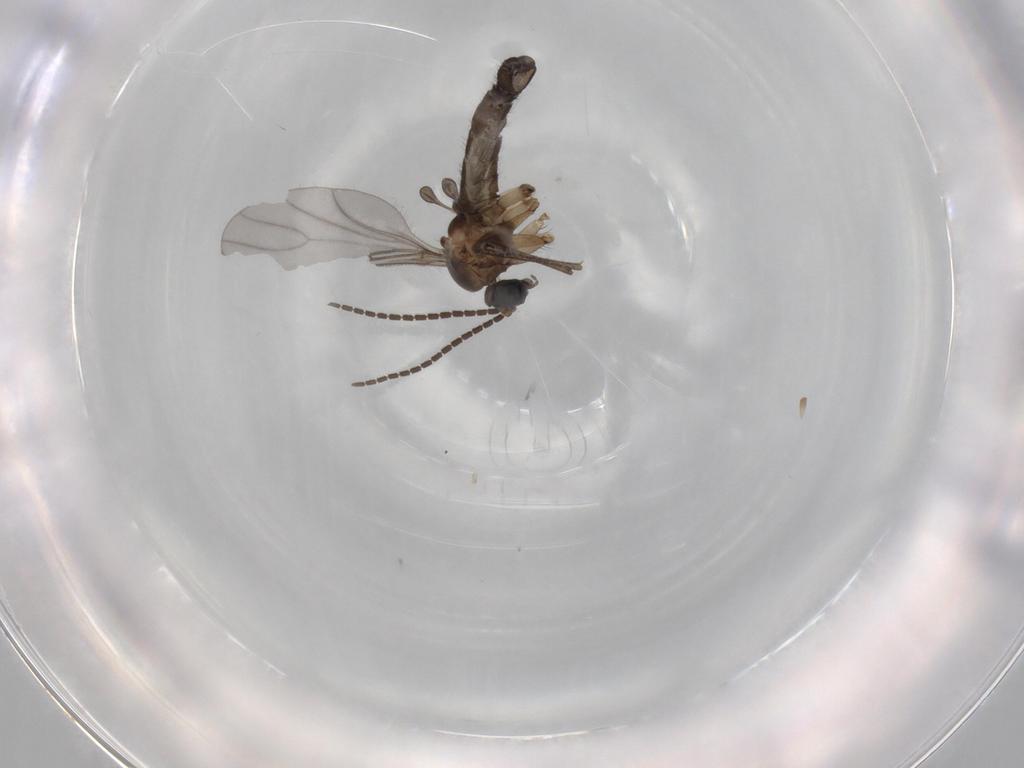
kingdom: Animalia
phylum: Arthropoda
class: Insecta
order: Diptera
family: Sciaridae
